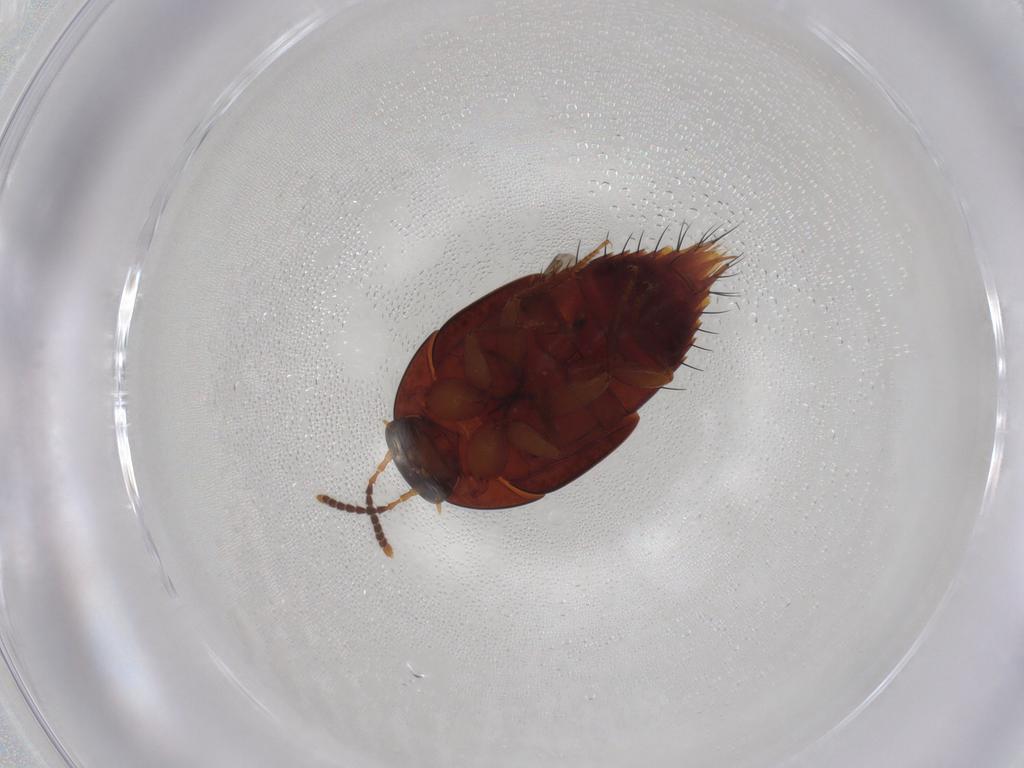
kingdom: Animalia
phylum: Arthropoda
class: Insecta
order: Coleoptera
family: Staphylinidae
